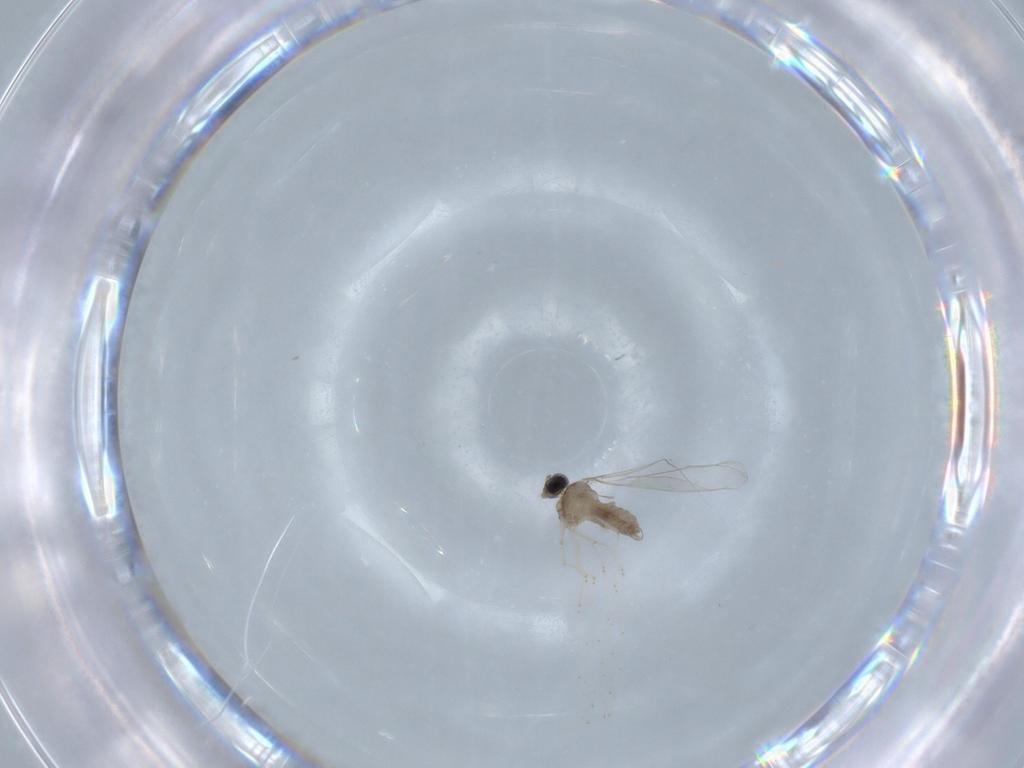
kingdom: Animalia
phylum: Arthropoda
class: Insecta
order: Diptera
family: Cecidomyiidae
